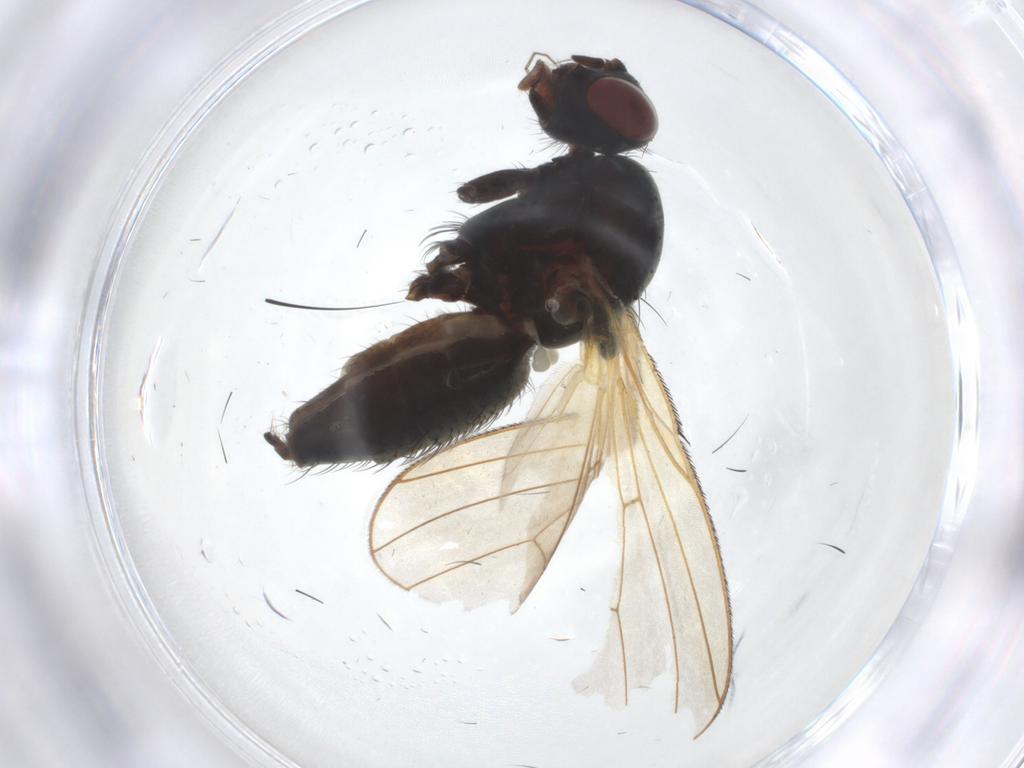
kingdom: Animalia
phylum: Arthropoda
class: Insecta
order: Diptera
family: Anthomyiidae
